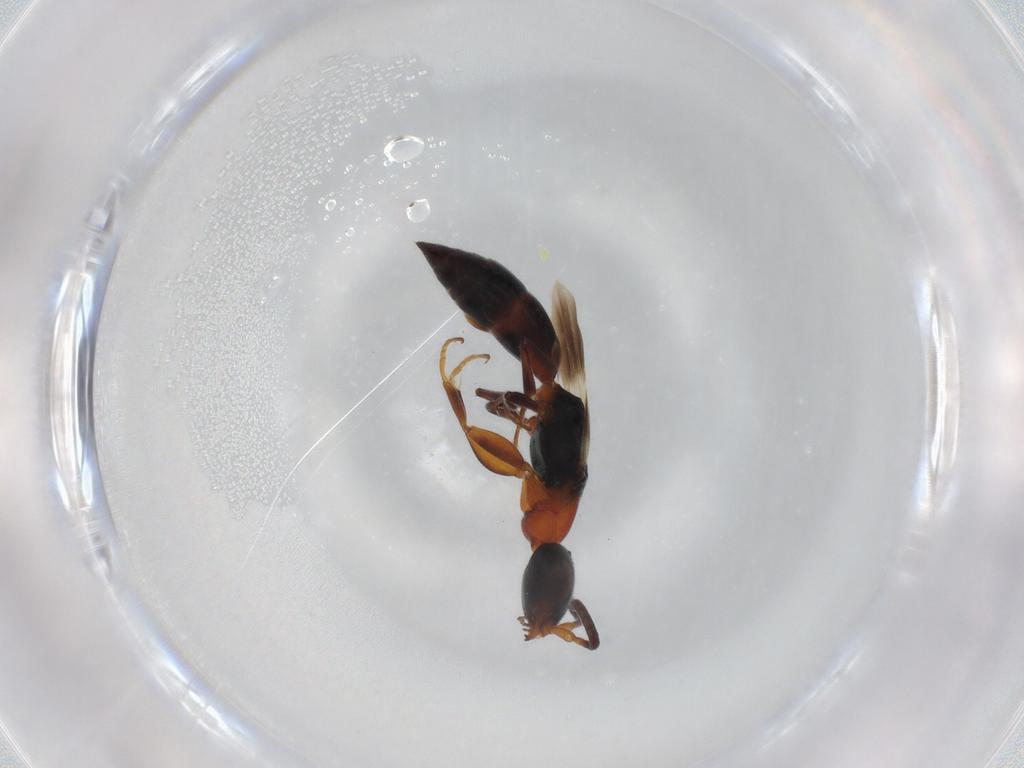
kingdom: Animalia
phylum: Arthropoda
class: Insecta
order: Hymenoptera
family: Bethylidae
